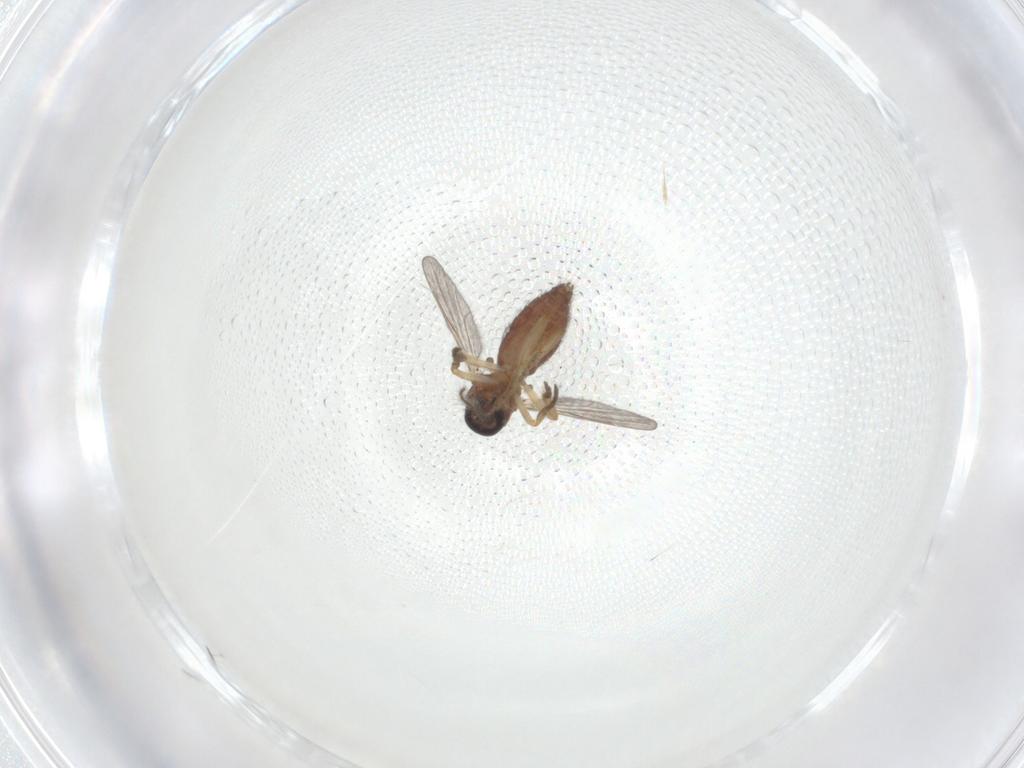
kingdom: Animalia
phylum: Arthropoda
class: Insecta
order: Diptera
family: Ceratopogonidae
